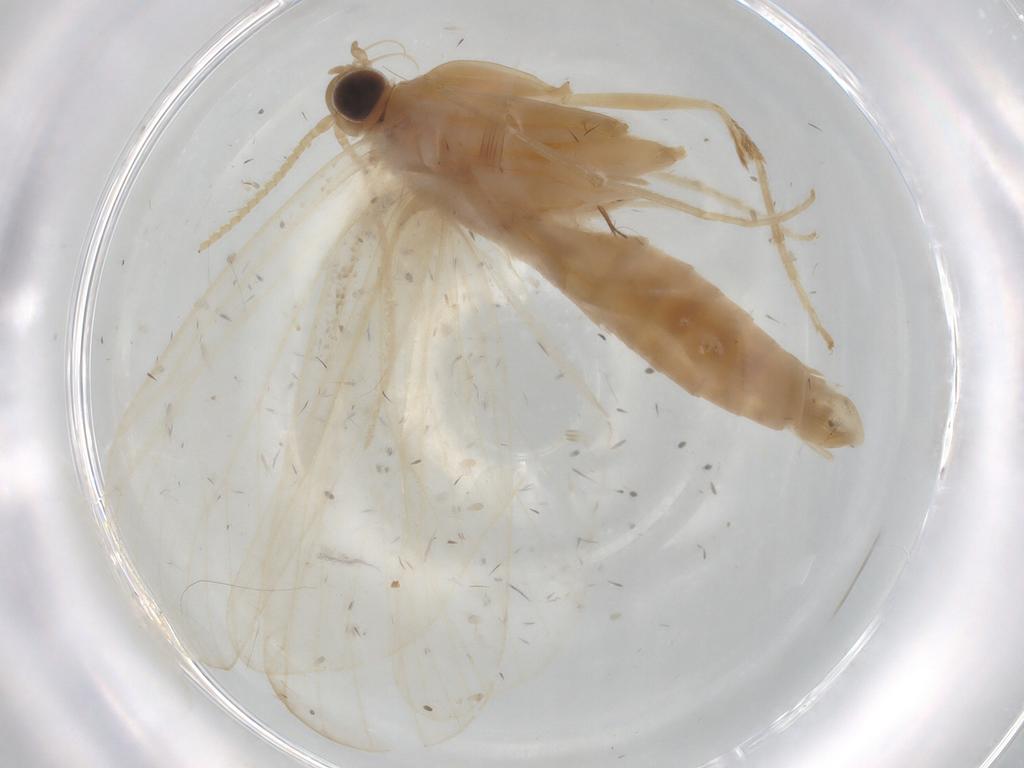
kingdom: Animalia
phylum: Arthropoda
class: Insecta
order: Lepidoptera
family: Crambidae
